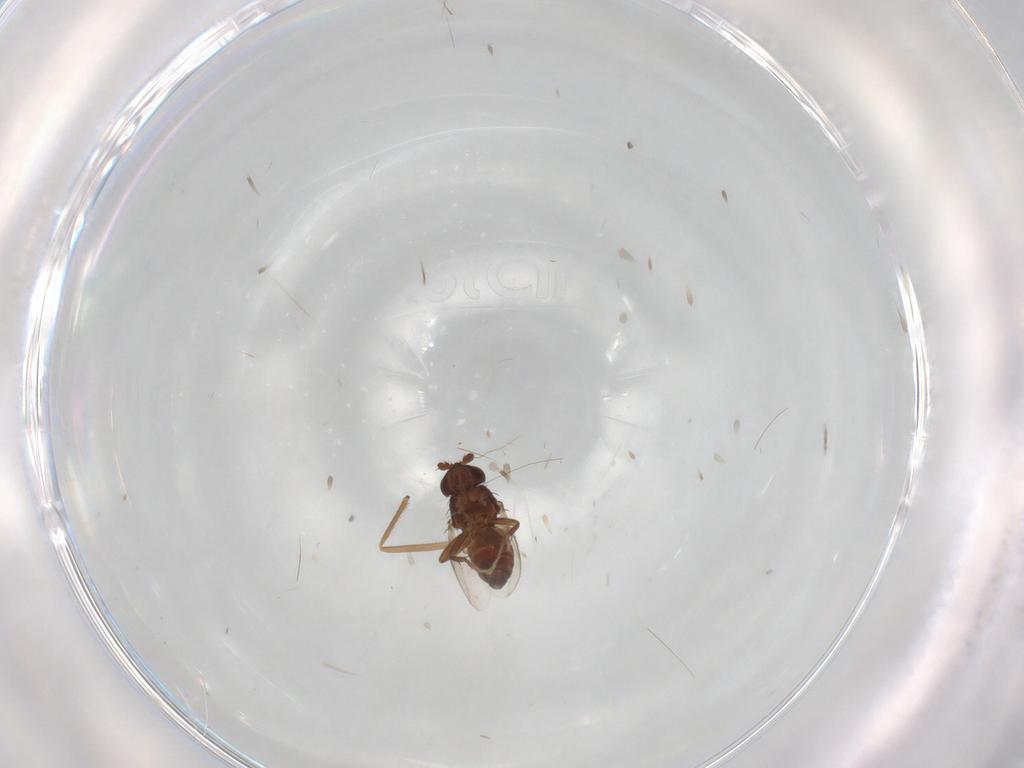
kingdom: Animalia
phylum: Arthropoda
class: Insecta
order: Diptera
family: Sphaeroceridae
